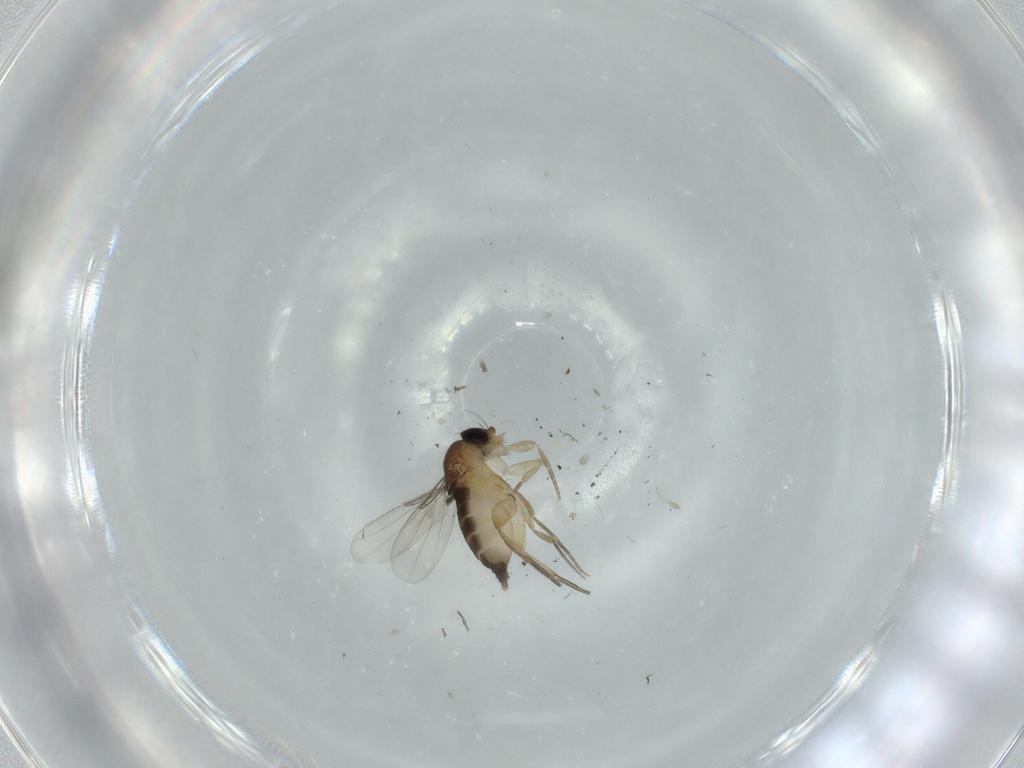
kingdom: Animalia
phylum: Arthropoda
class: Insecta
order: Diptera
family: Phoridae
